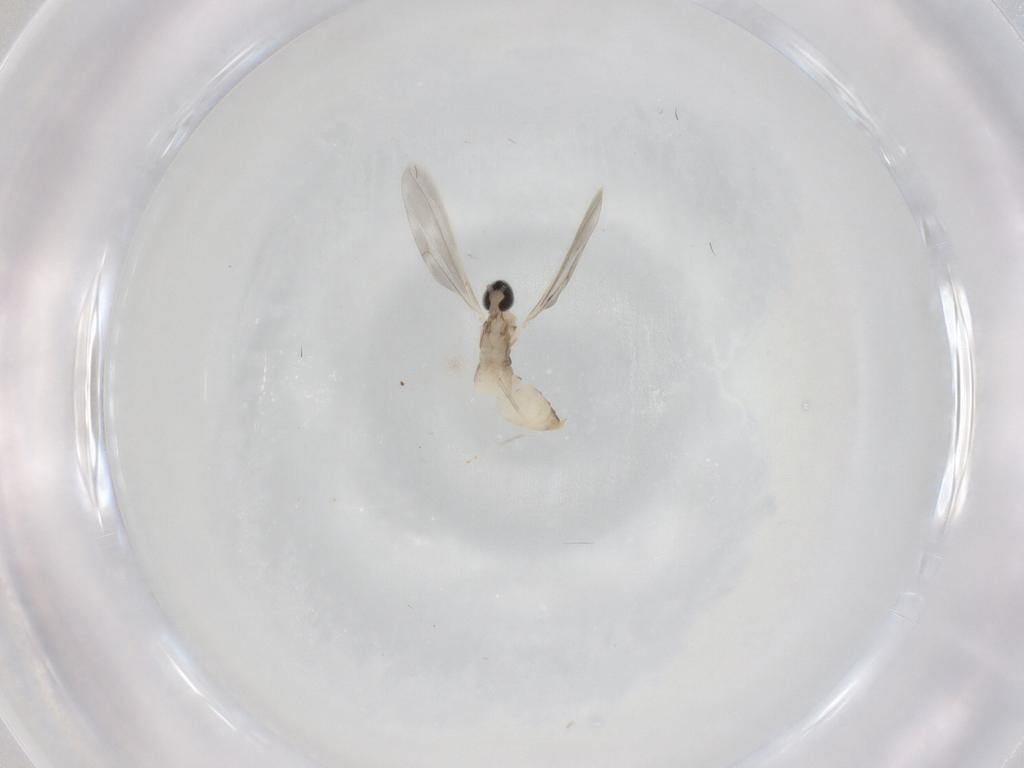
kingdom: Animalia
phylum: Arthropoda
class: Insecta
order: Diptera
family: Cecidomyiidae
